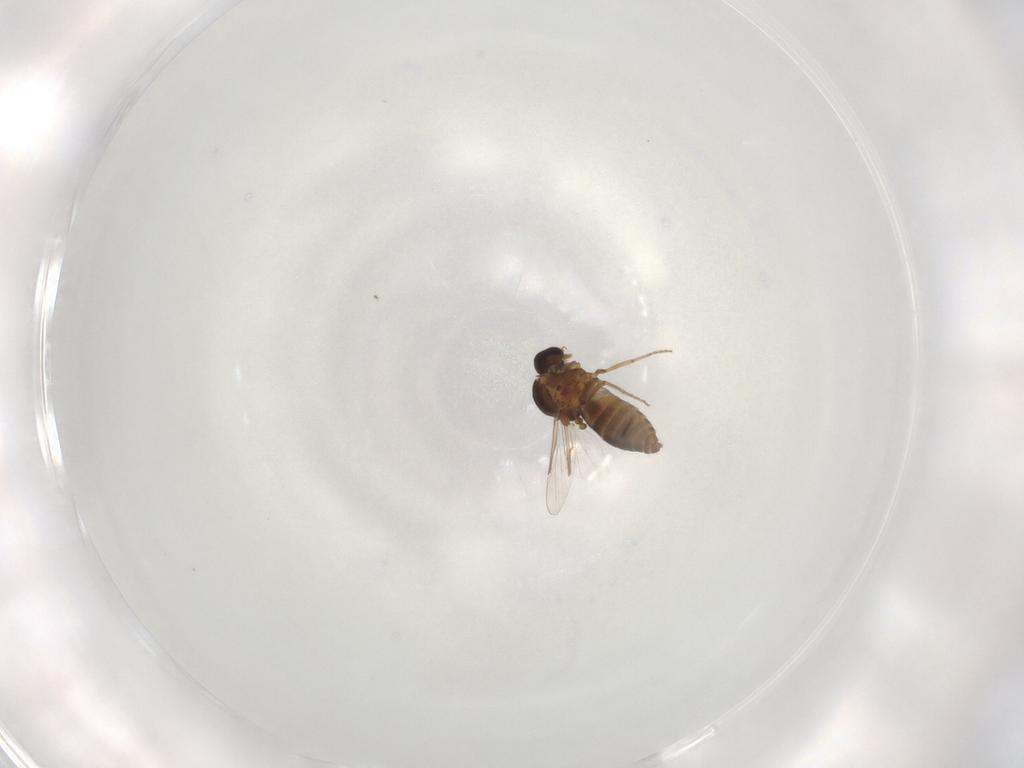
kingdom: Animalia
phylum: Arthropoda
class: Insecta
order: Diptera
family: Ceratopogonidae
